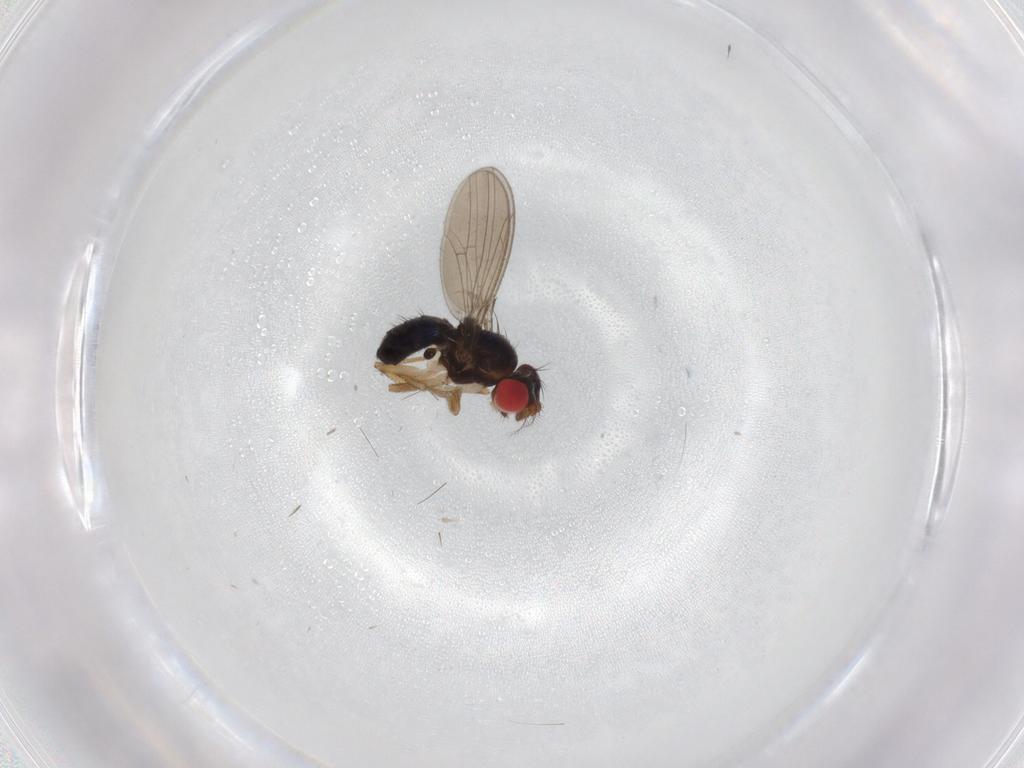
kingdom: Animalia
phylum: Arthropoda
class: Insecta
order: Diptera
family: Drosophilidae
